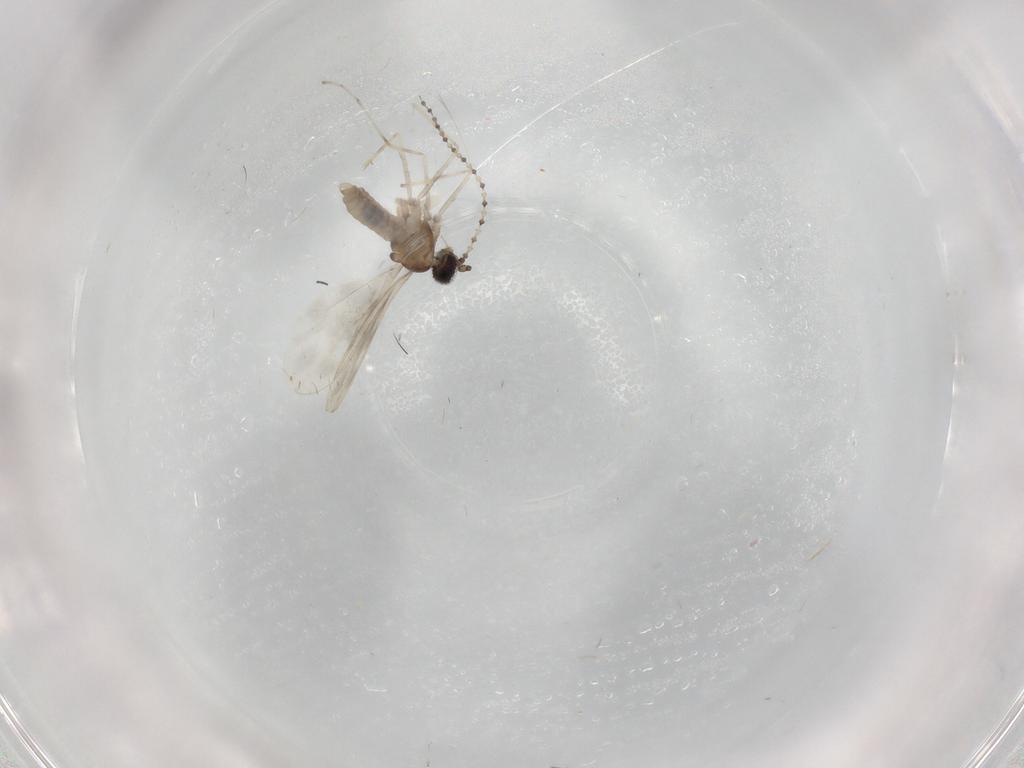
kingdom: Animalia
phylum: Arthropoda
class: Insecta
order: Diptera
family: Cecidomyiidae
